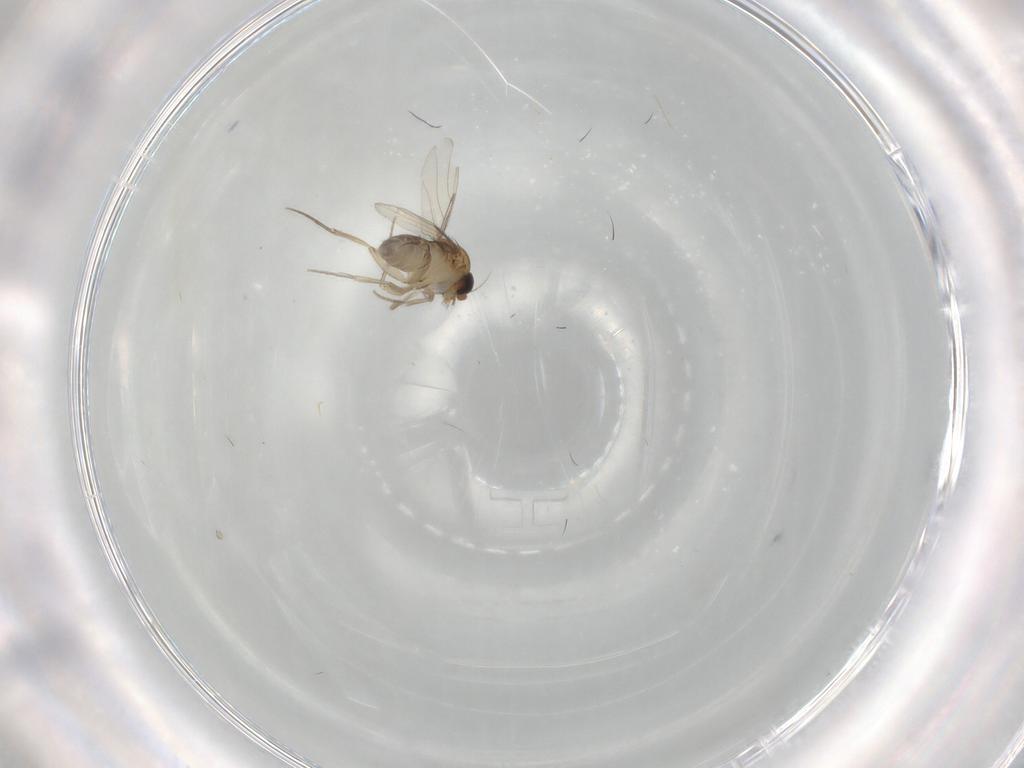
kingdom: Animalia
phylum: Arthropoda
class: Insecta
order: Diptera
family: Phoridae
